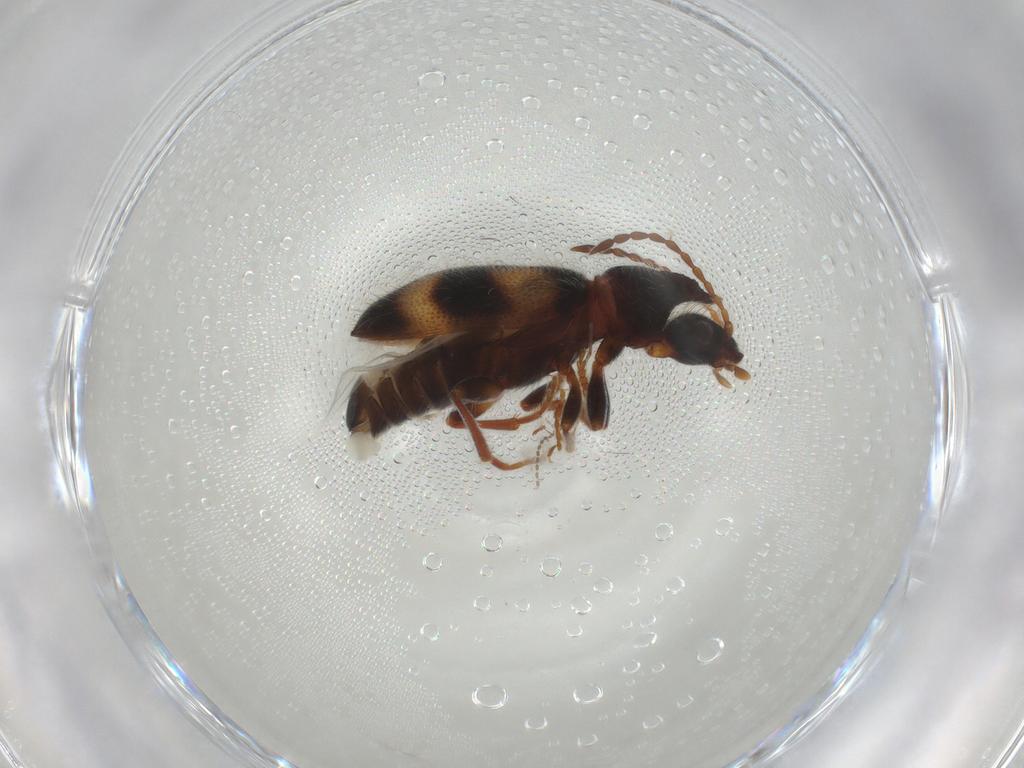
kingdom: Animalia
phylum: Arthropoda
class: Insecta
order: Coleoptera
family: Anthicidae
